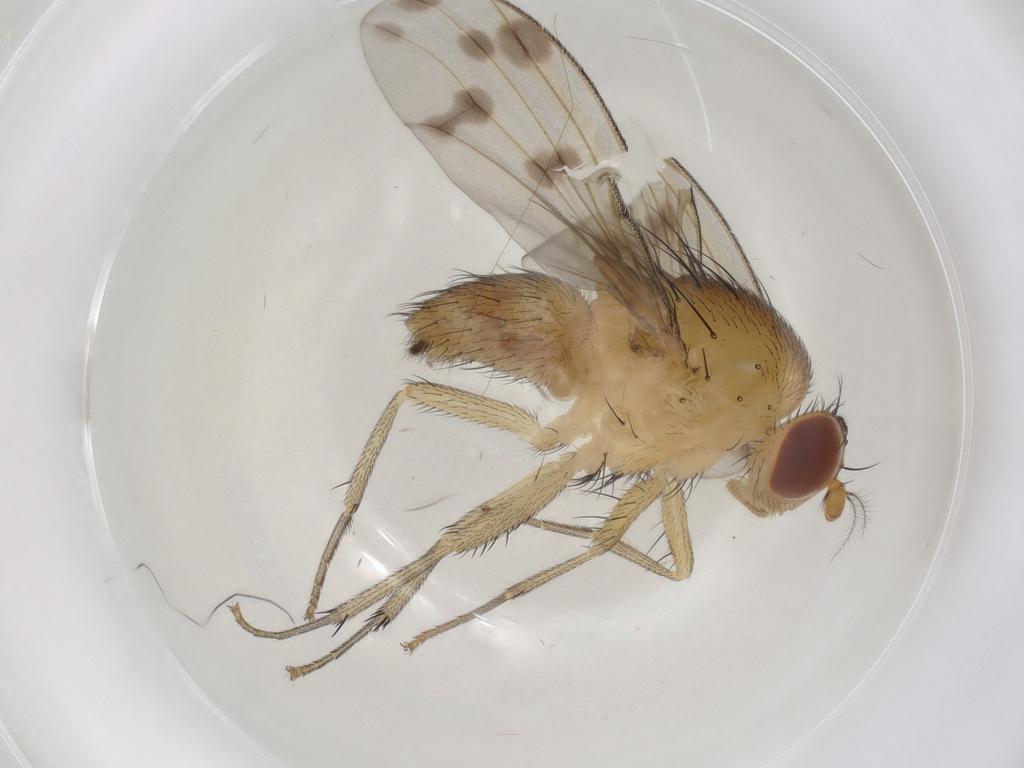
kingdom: Animalia
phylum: Arthropoda
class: Insecta
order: Diptera
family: Lauxaniidae
